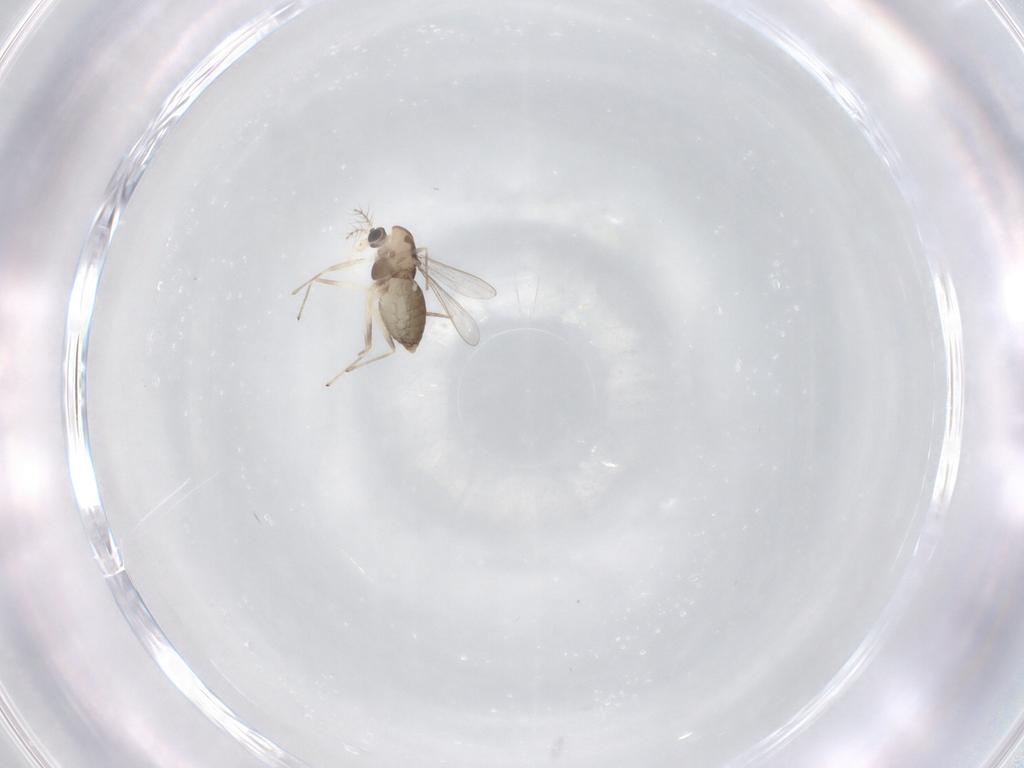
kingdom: Animalia
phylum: Arthropoda
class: Insecta
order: Diptera
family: Chironomidae
